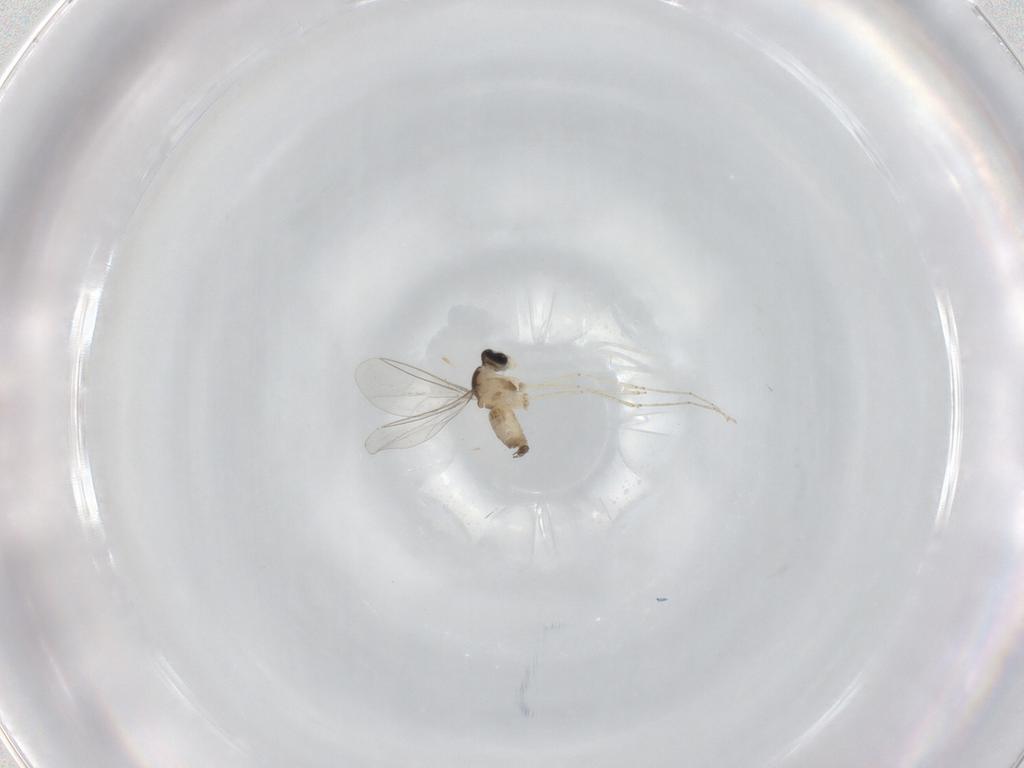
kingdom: Animalia
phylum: Arthropoda
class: Insecta
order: Diptera
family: Cecidomyiidae
